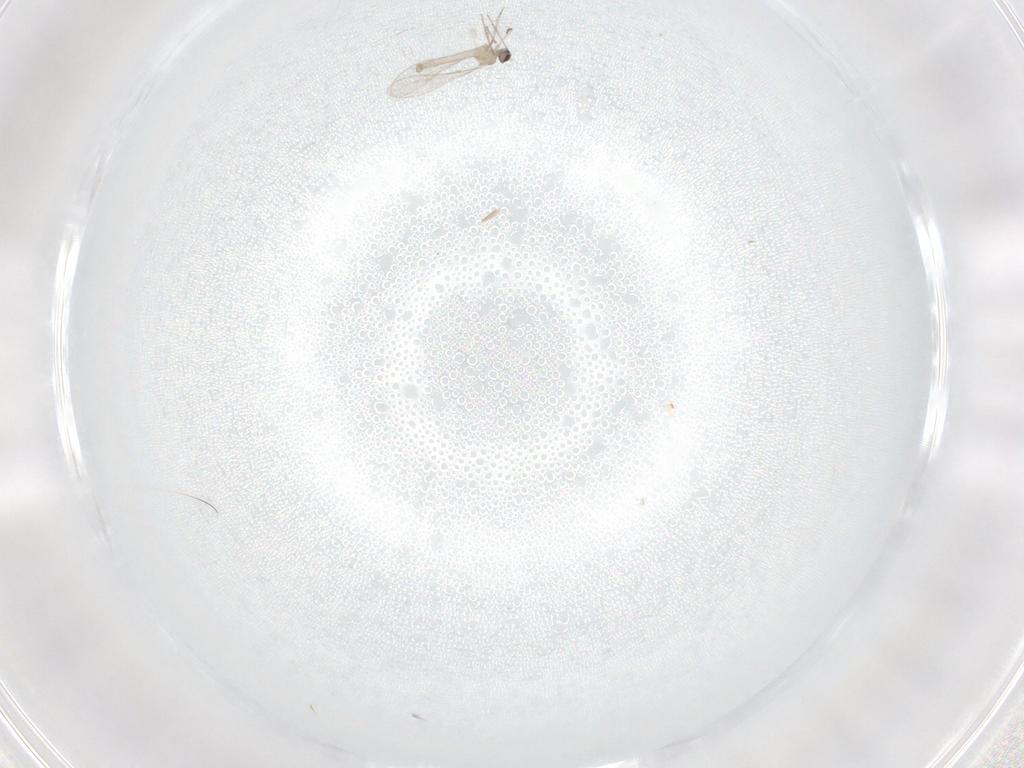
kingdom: Animalia
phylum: Arthropoda
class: Insecta
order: Diptera
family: Cecidomyiidae
